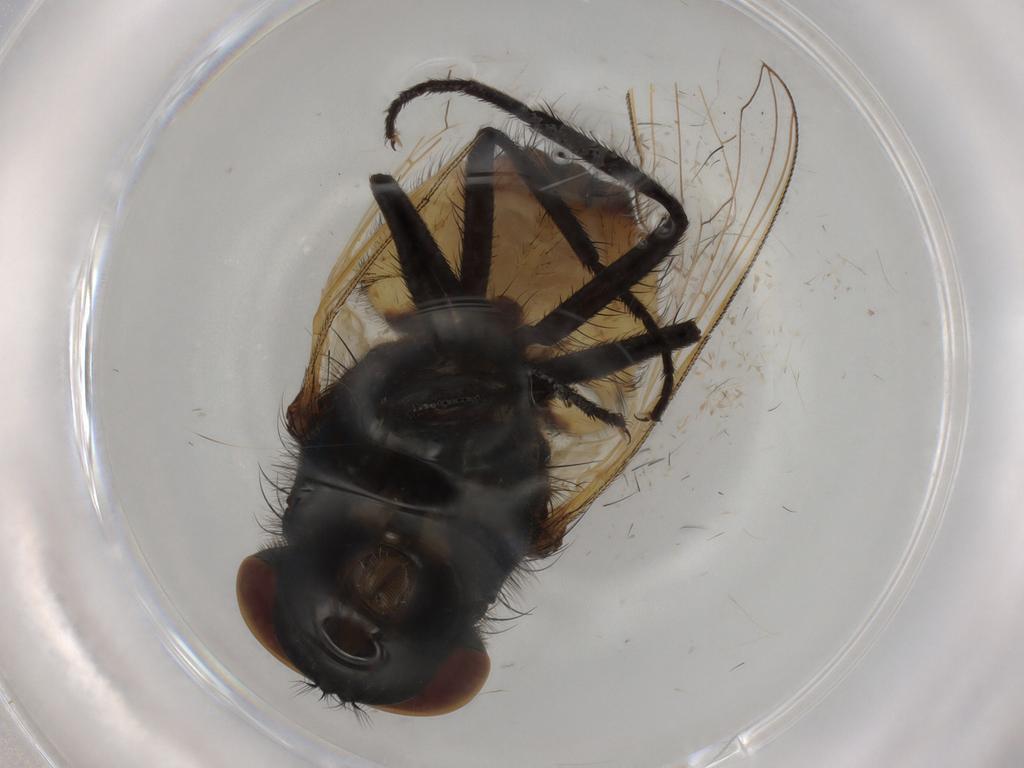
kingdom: Animalia
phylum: Arthropoda
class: Insecta
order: Diptera
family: Muscidae
